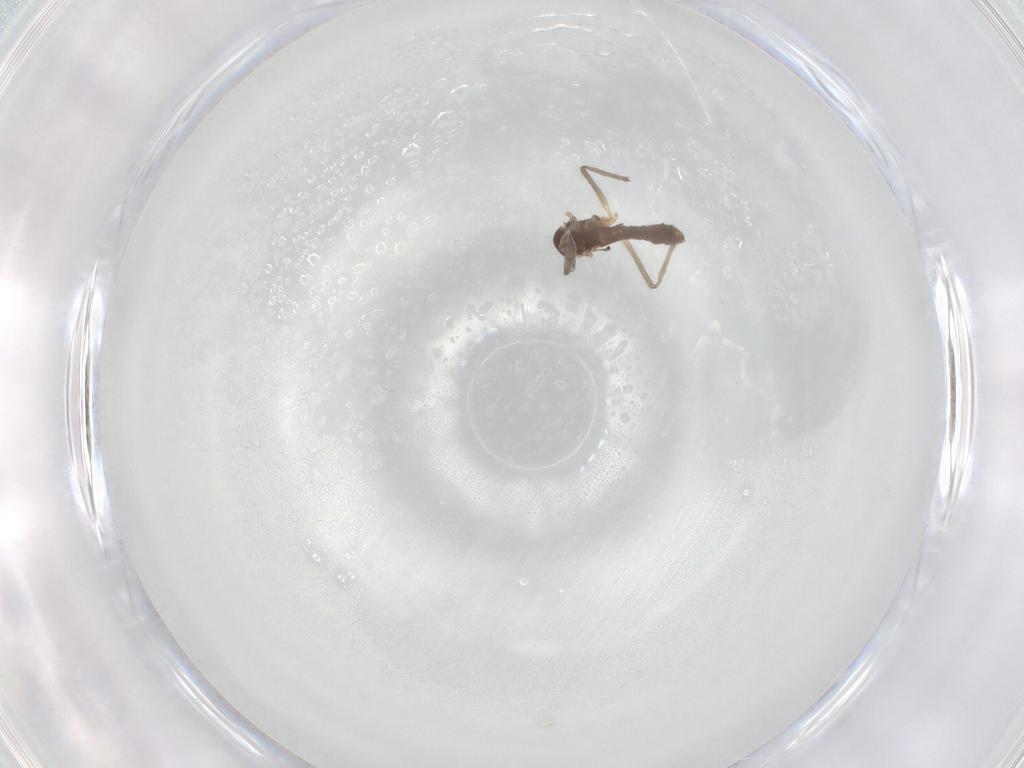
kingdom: Animalia
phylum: Arthropoda
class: Insecta
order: Diptera
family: Chironomidae
